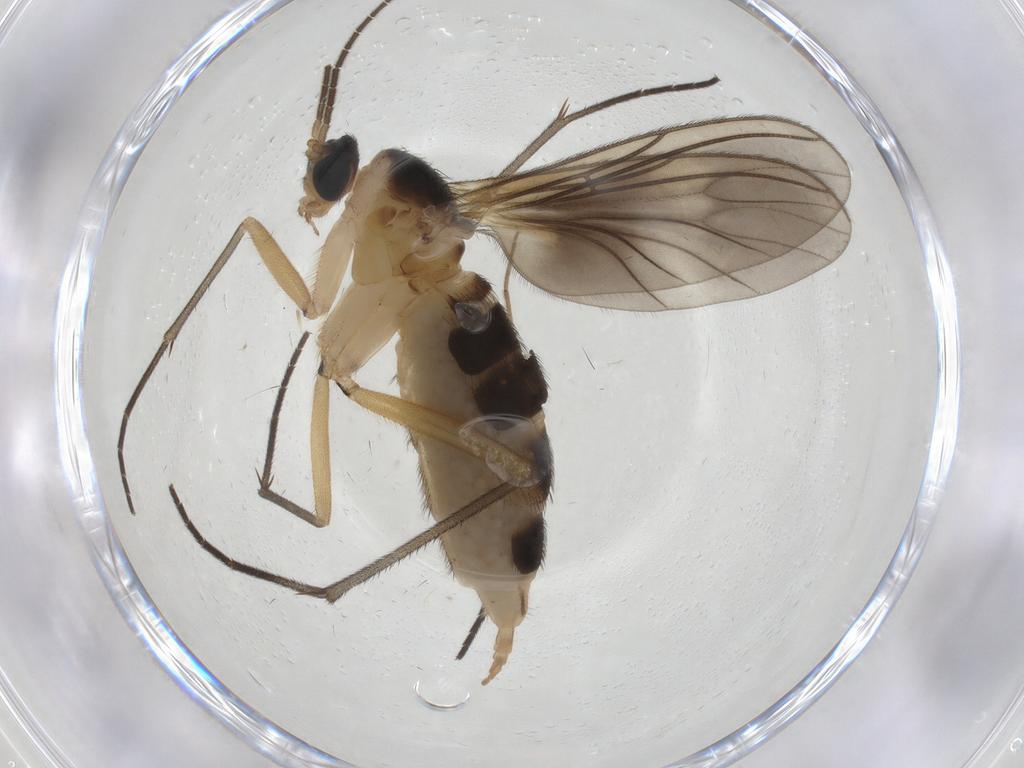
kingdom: Animalia
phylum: Arthropoda
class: Insecta
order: Diptera
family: Sciaridae
